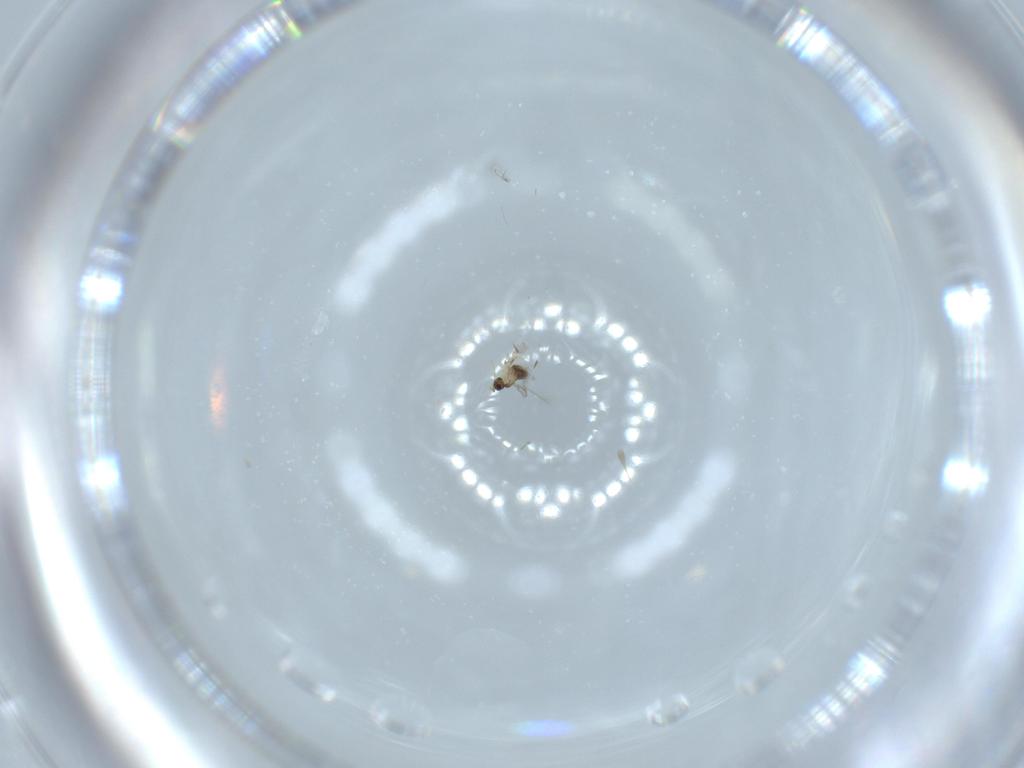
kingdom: Animalia
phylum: Arthropoda
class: Insecta
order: Hymenoptera
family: Mymaridae
